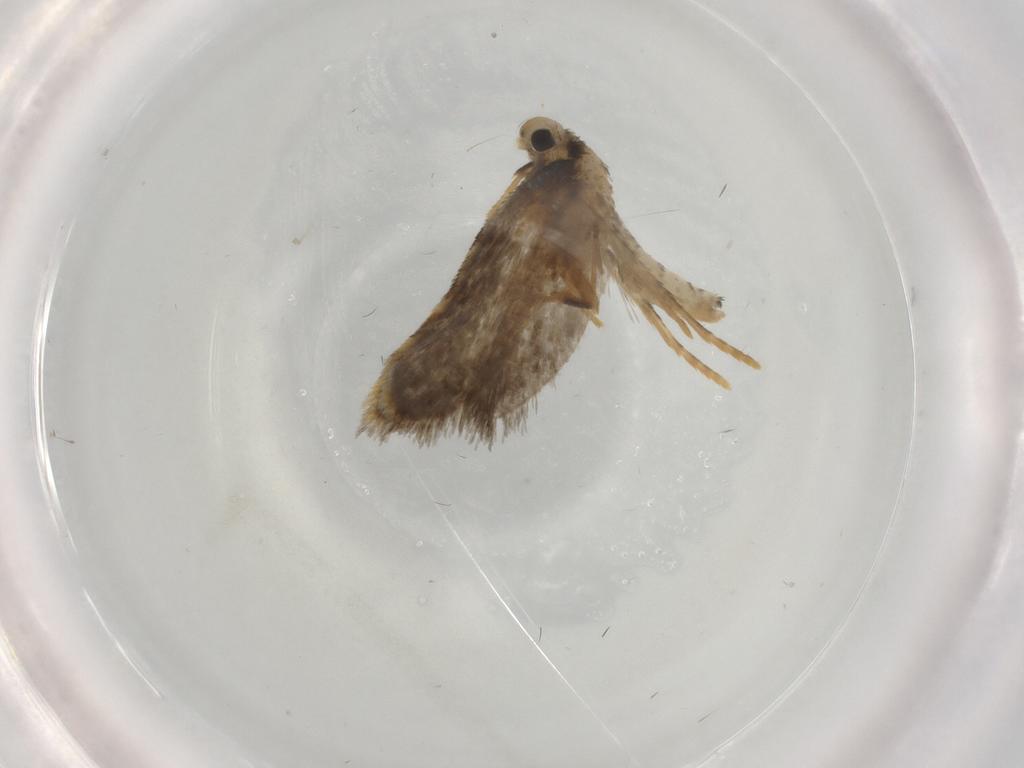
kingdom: Animalia
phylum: Arthropoda
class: Insecta
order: Lepidoptera
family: Psychidae
